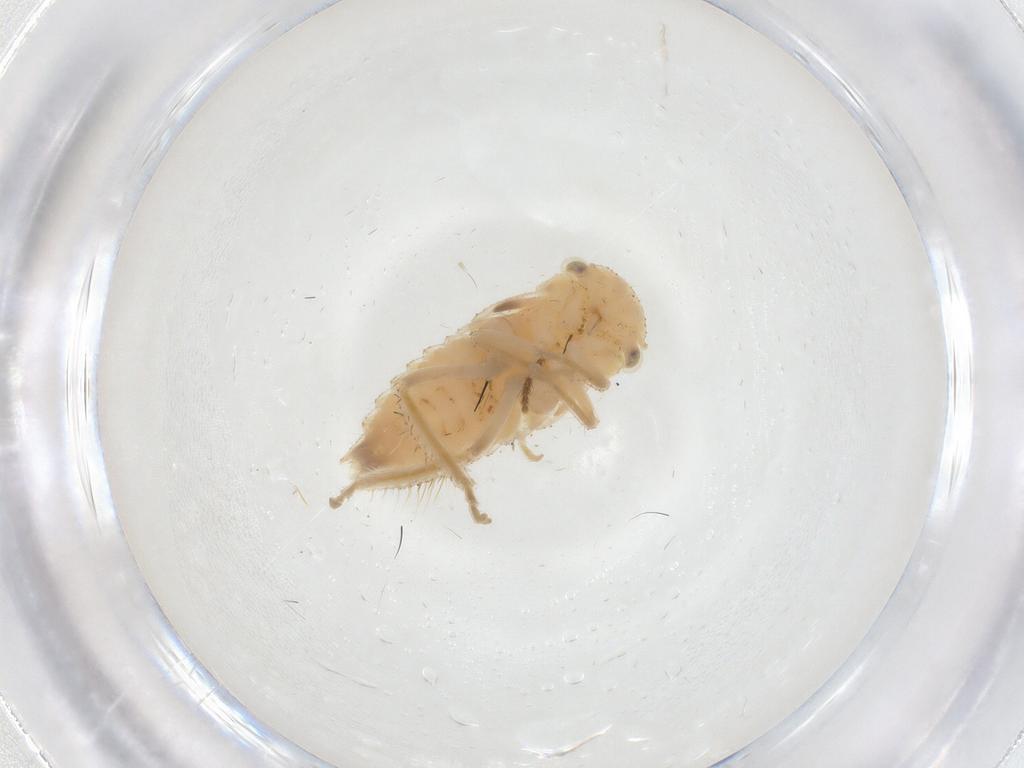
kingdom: Animalia
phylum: Arthropoda
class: Insecta
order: Hemiptera
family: Cicadellidae
